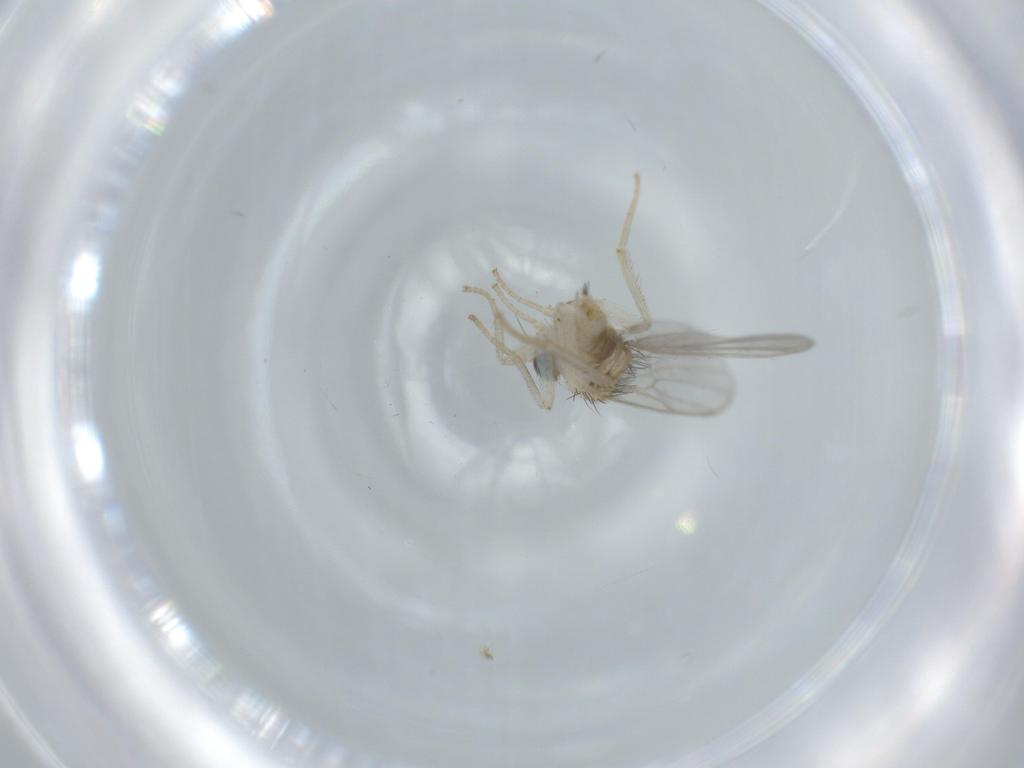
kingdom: Animalia
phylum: Arthropoda
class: Insecta
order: Diptera
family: Hybotidae
